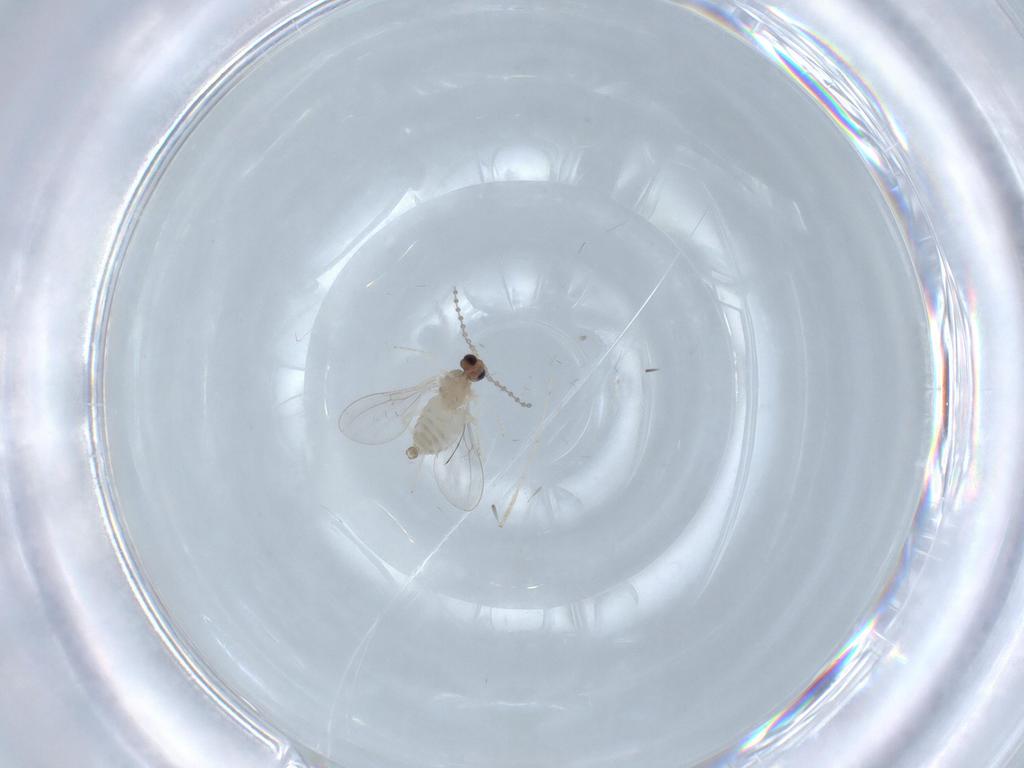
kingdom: Animalia
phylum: Arthropoda
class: Insecta
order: Diptera
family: Cecidomyiidae
